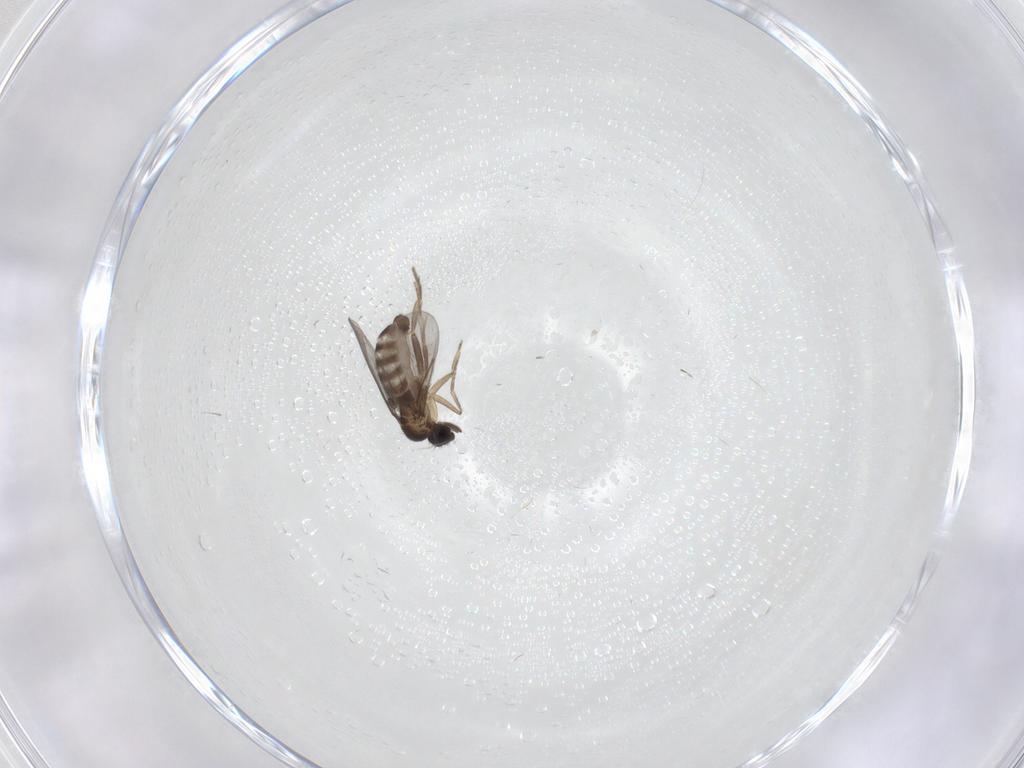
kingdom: Animalia
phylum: Arthropoda
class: Insecta
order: Diptera
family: Phoridae
